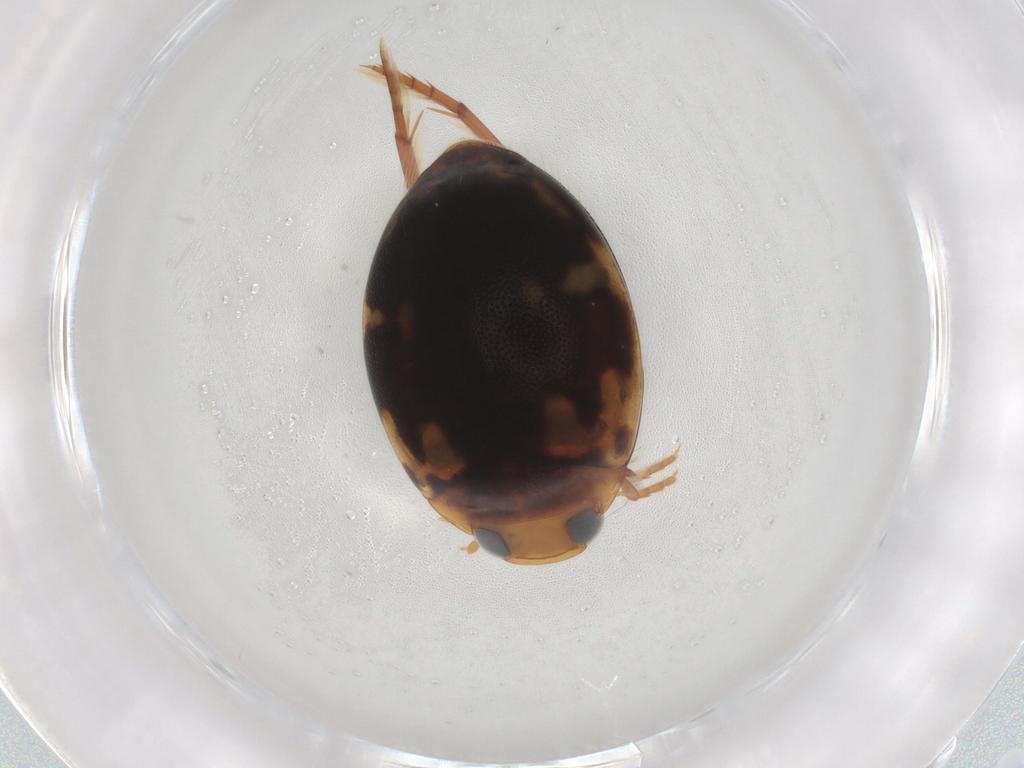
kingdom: Animalia
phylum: Arthropoda
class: Insecta
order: Coleoptera
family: Dytiscidae
